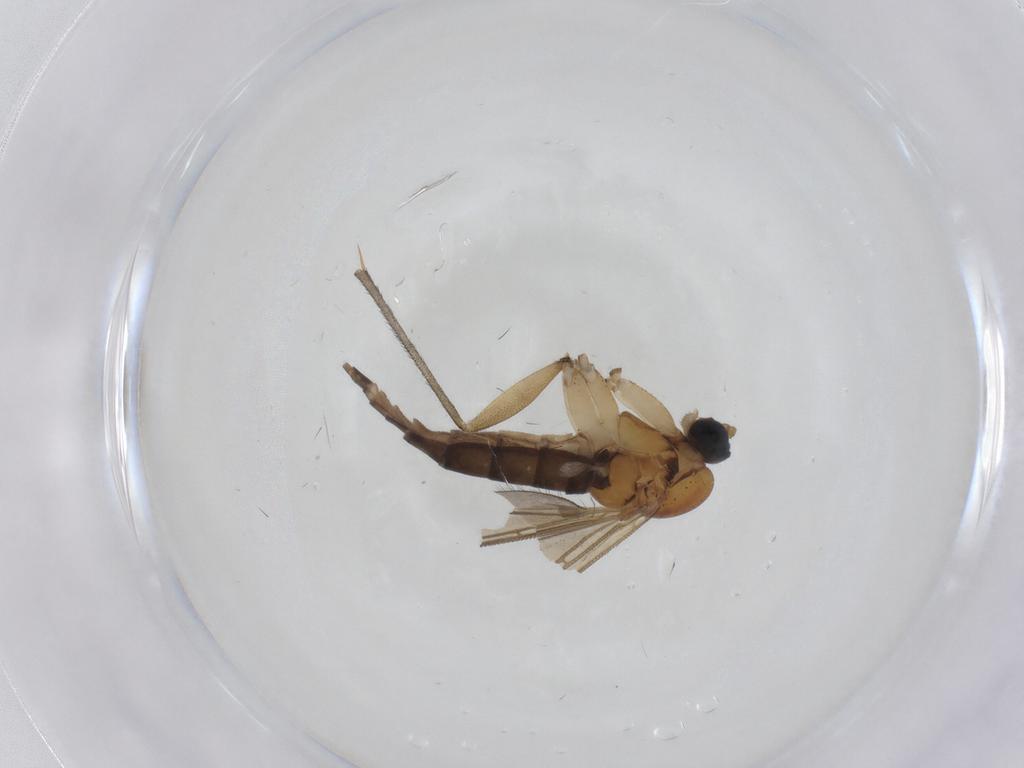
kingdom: Animalia
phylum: Arthropoda
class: Insecta
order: Diptera
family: Sciaridae
